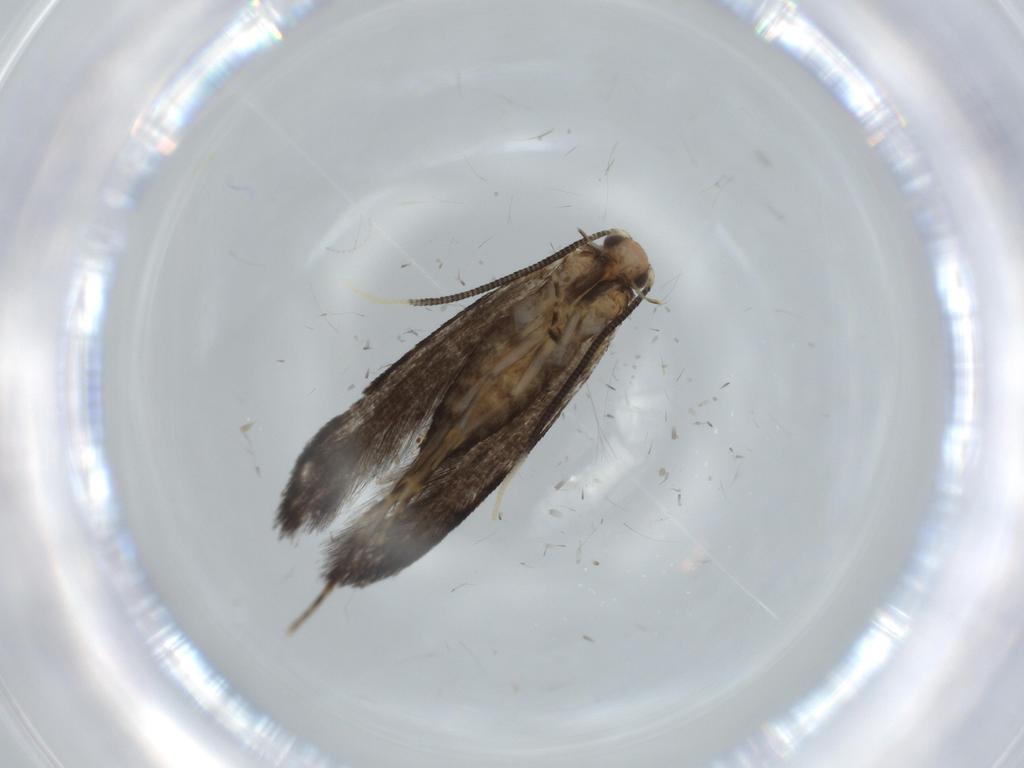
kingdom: Animalia
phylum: Arthropoda
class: Insecta
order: Lepidoptera
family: Tineidae
